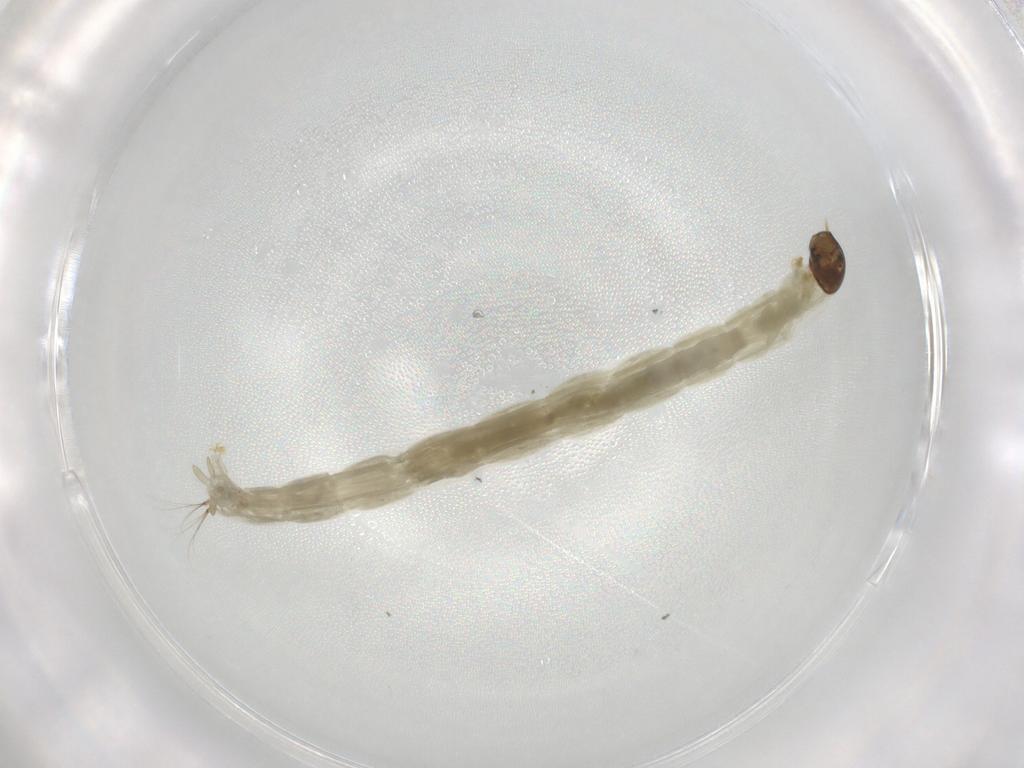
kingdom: Animalia
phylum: Arthropoda
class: Insecta
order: Diptera
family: Chironomidae
